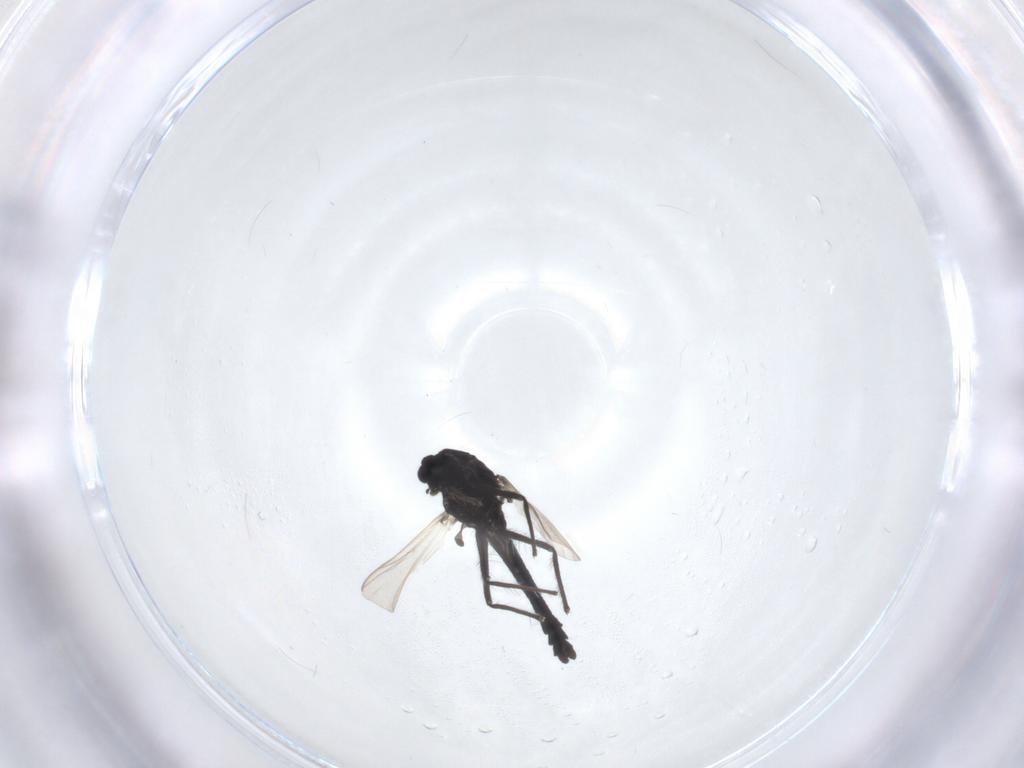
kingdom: Animalia
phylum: Arthropoda
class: Insecta
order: Diptera
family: Chironomidae
